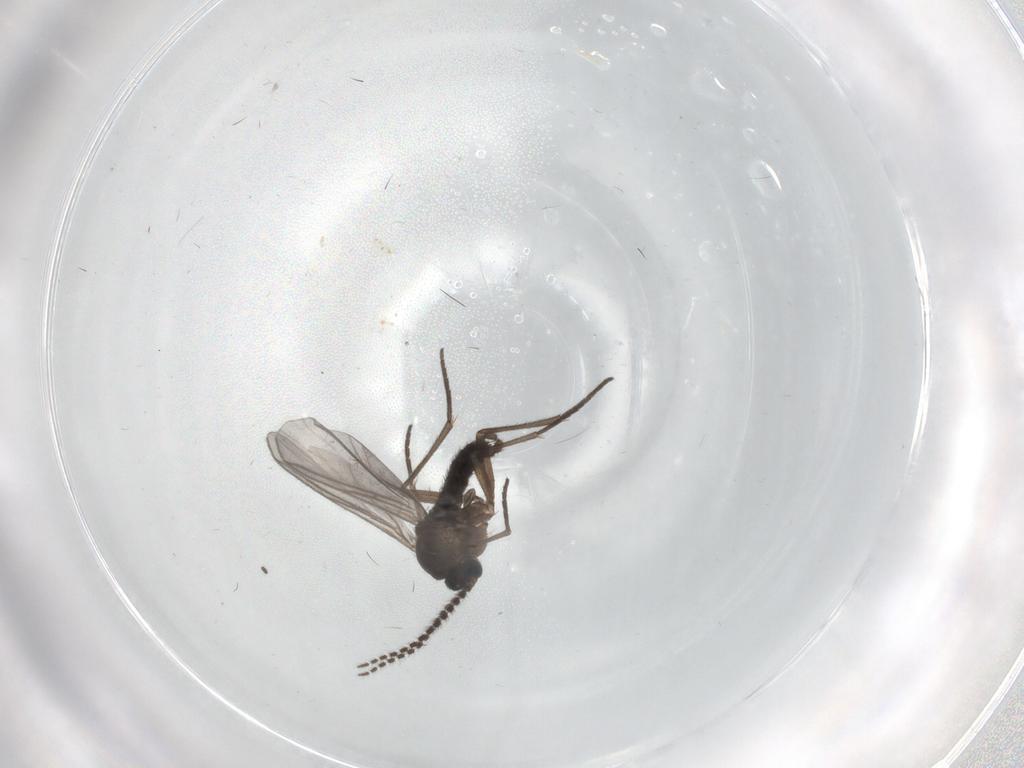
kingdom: Animalia
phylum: Arthropoda
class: Insecta
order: Diptera
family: Sciaridae
